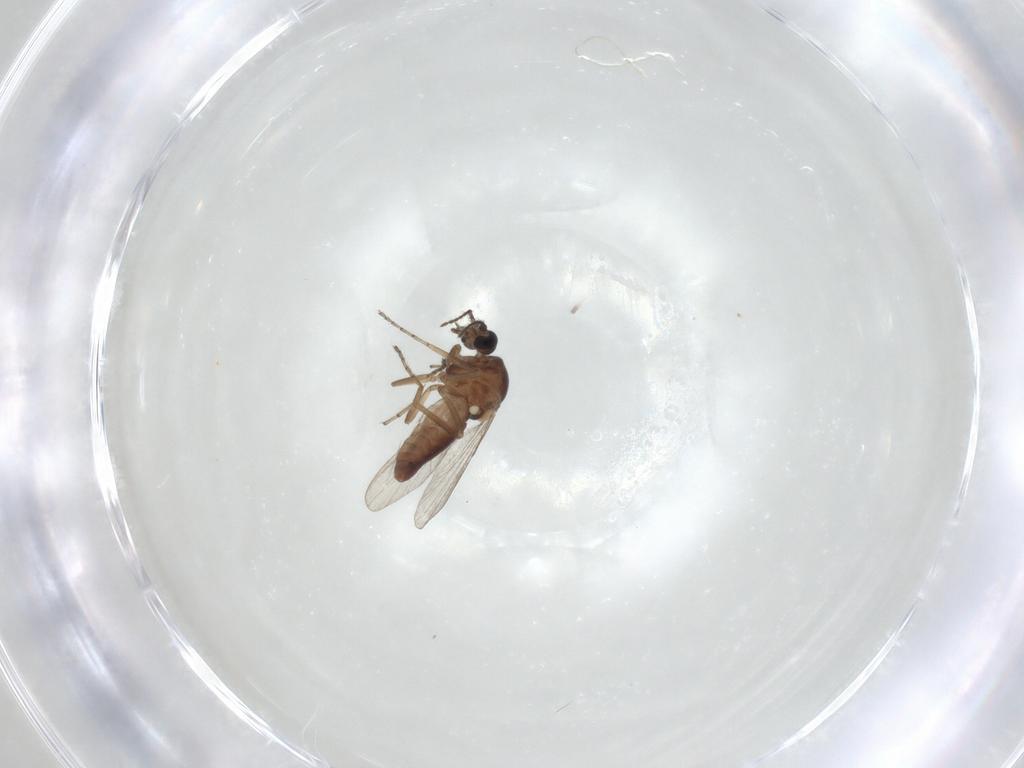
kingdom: Animalia
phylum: Arthropoda
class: Insecta
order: Diptera
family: Ceratopogonidae
